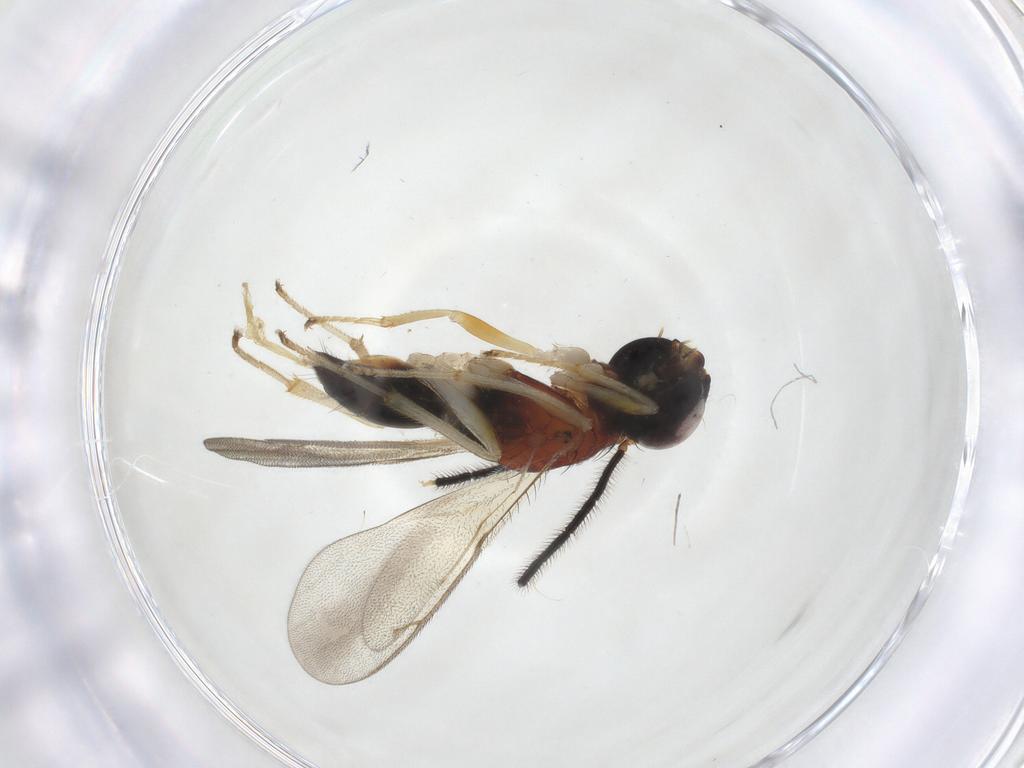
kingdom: Animalia
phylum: Arthropoda
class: Insecta
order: Hymenoptera
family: Diparidae
